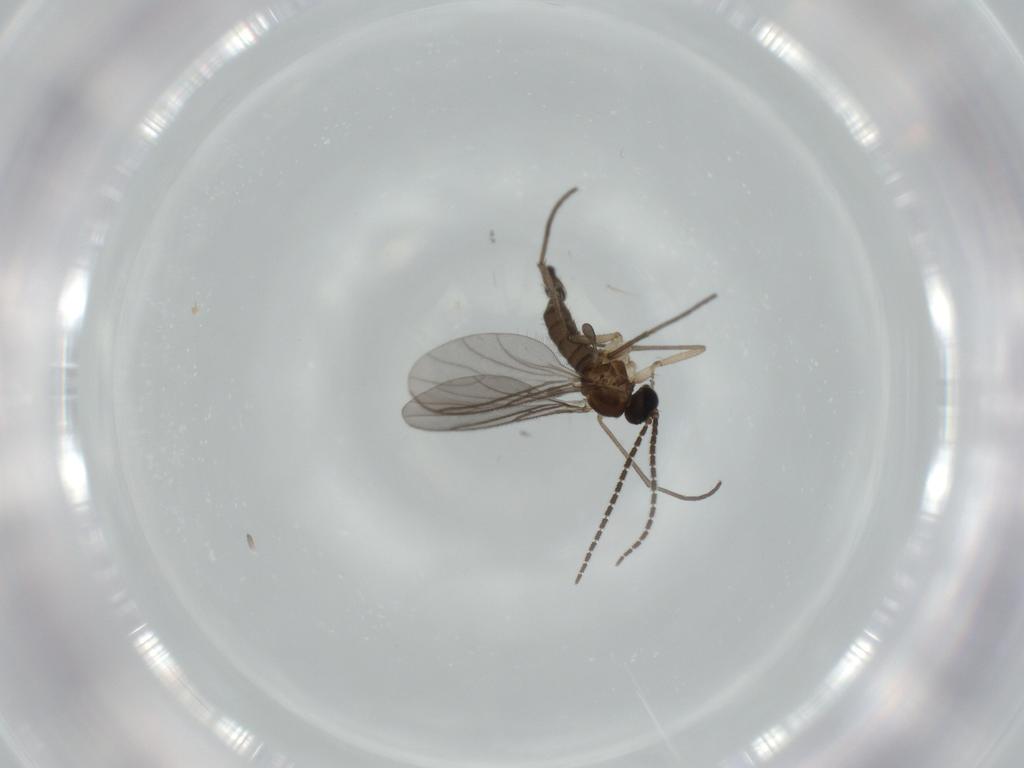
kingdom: Animalia
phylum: Arthropoda
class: Insecta
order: Diptera
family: Sciaridae
